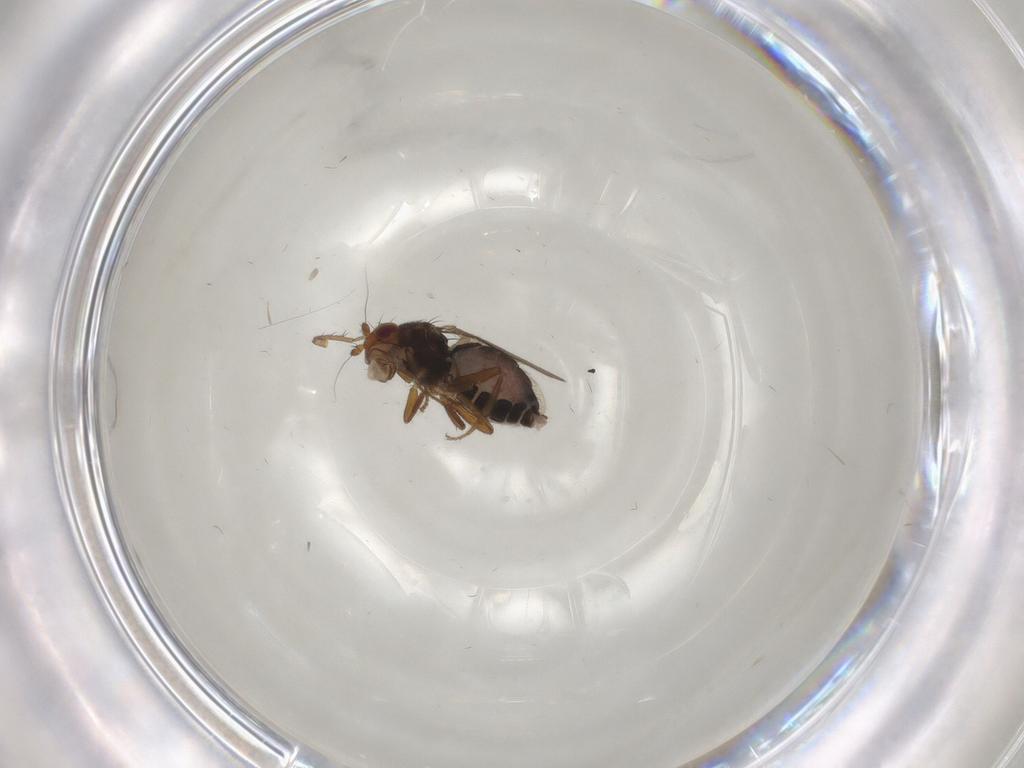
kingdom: Animalia
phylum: Arthropoda
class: Insecta
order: Diptera
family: Sphaeroceridae
